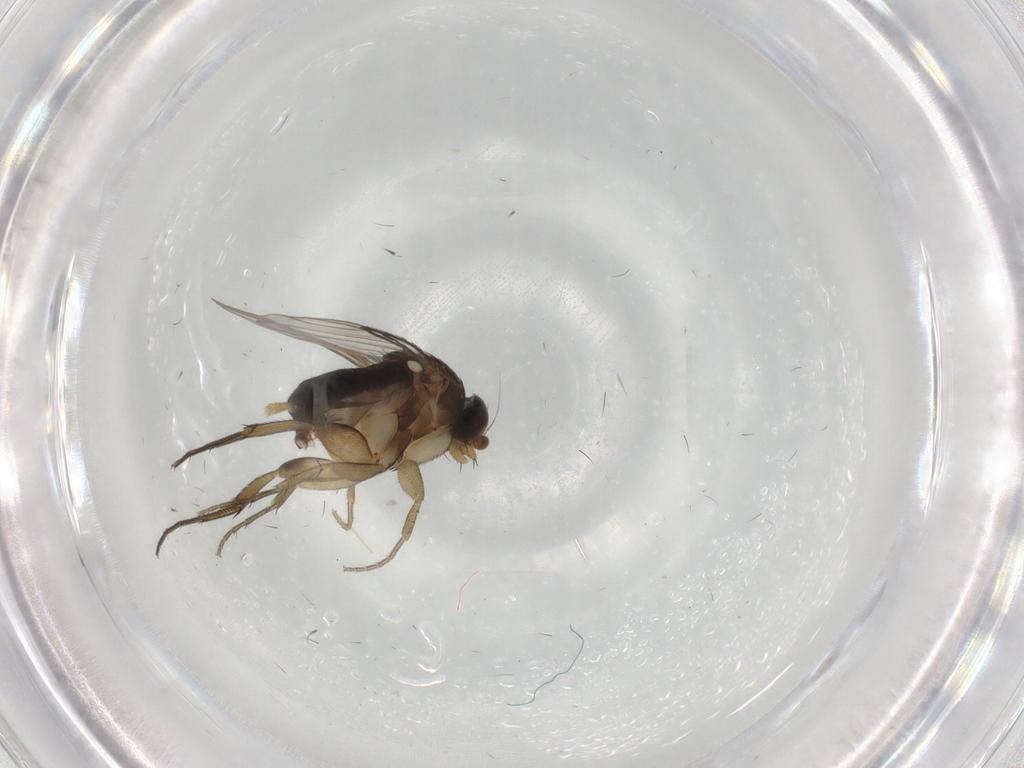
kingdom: Animalia
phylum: Arthropoda
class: Insecta
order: Diptera
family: Phoridae
